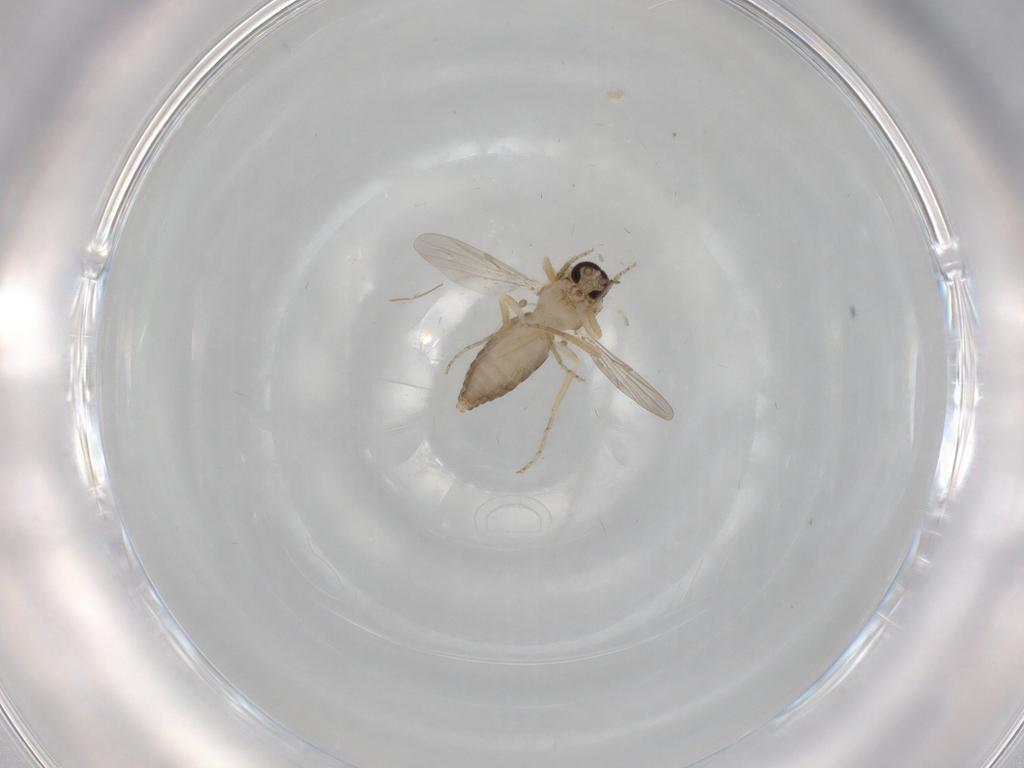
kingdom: Animalia
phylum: Arthropoda
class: Insecta
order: Diptera
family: Ceratopogonidae
